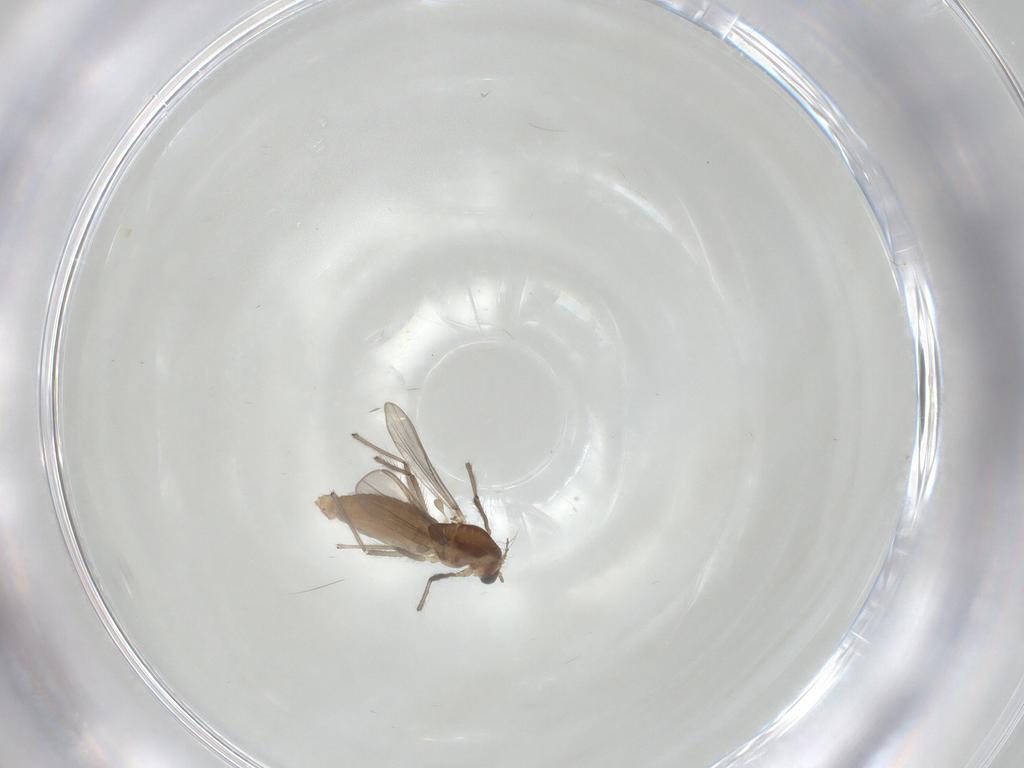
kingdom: Animalia
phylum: Arthropoda
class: Insecta
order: Diptera
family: Chironomidae
